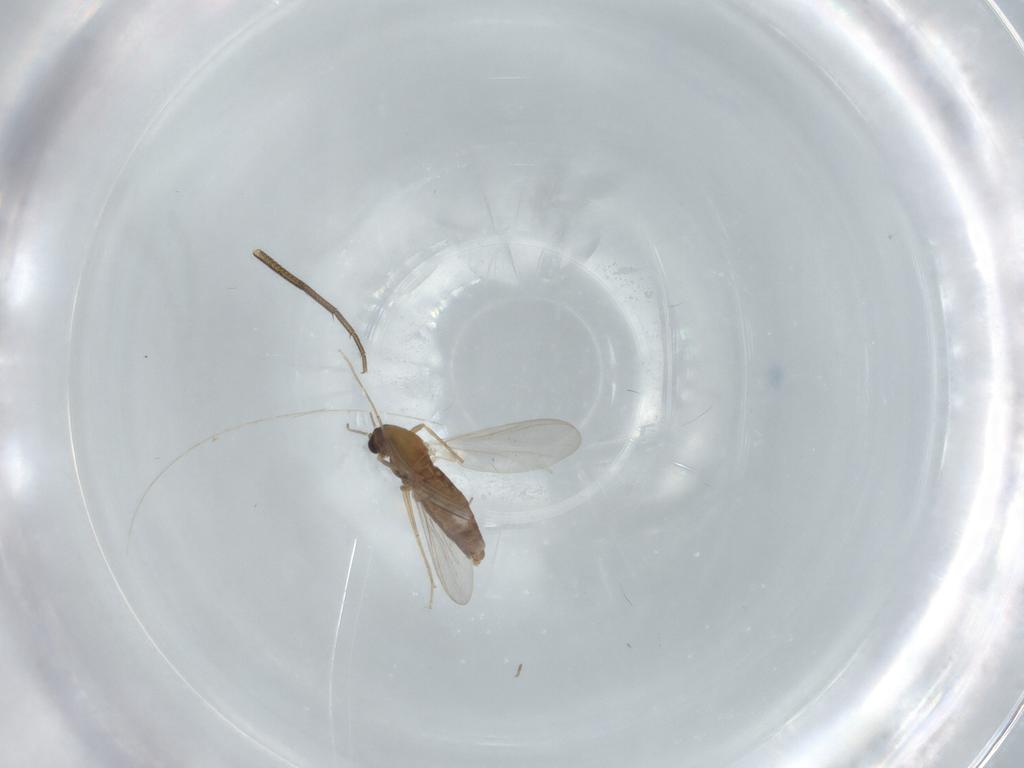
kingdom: Animalia
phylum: Arthropoda
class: Insecta
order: Diptera
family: Chironomidae
